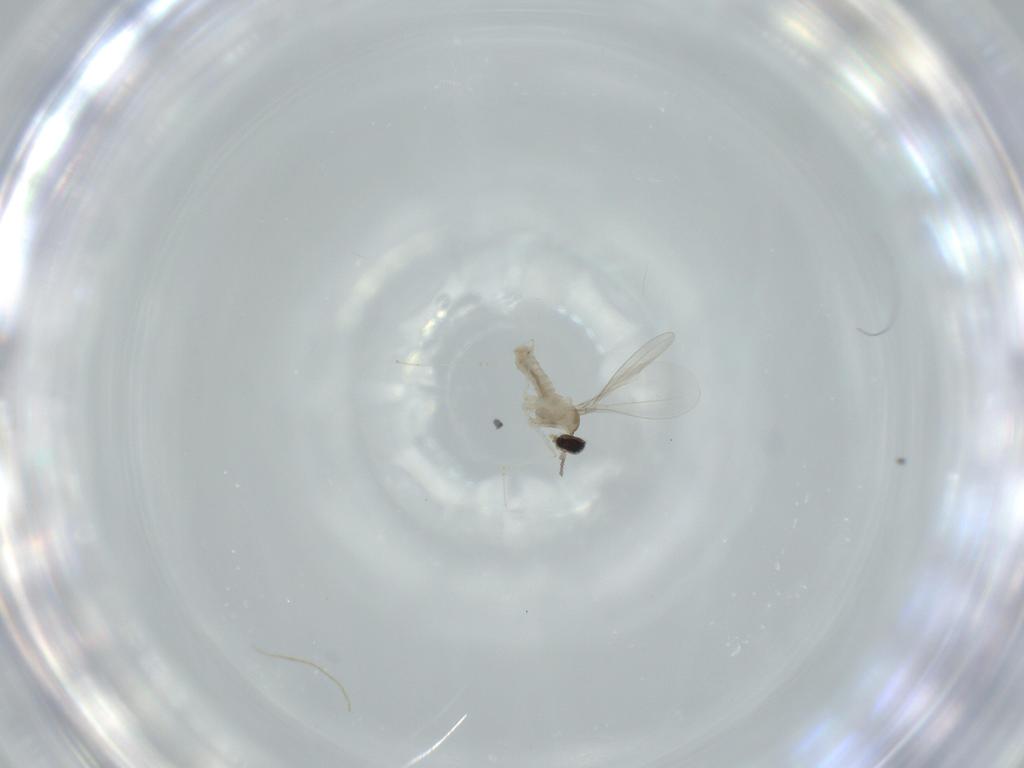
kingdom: Animalia
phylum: Arthropoda
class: Insecta
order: Diptera
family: Cecidomyiidae
